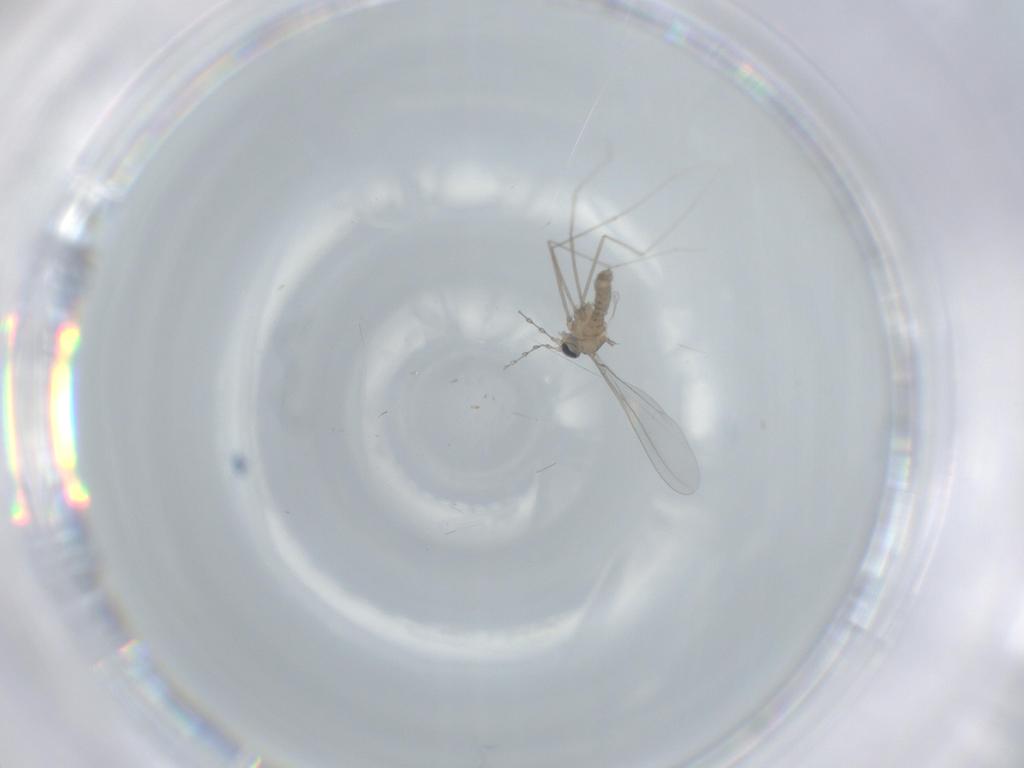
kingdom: Animalia
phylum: Arthropoda
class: Insecta
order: Diptera
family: Cecidomyiidae
